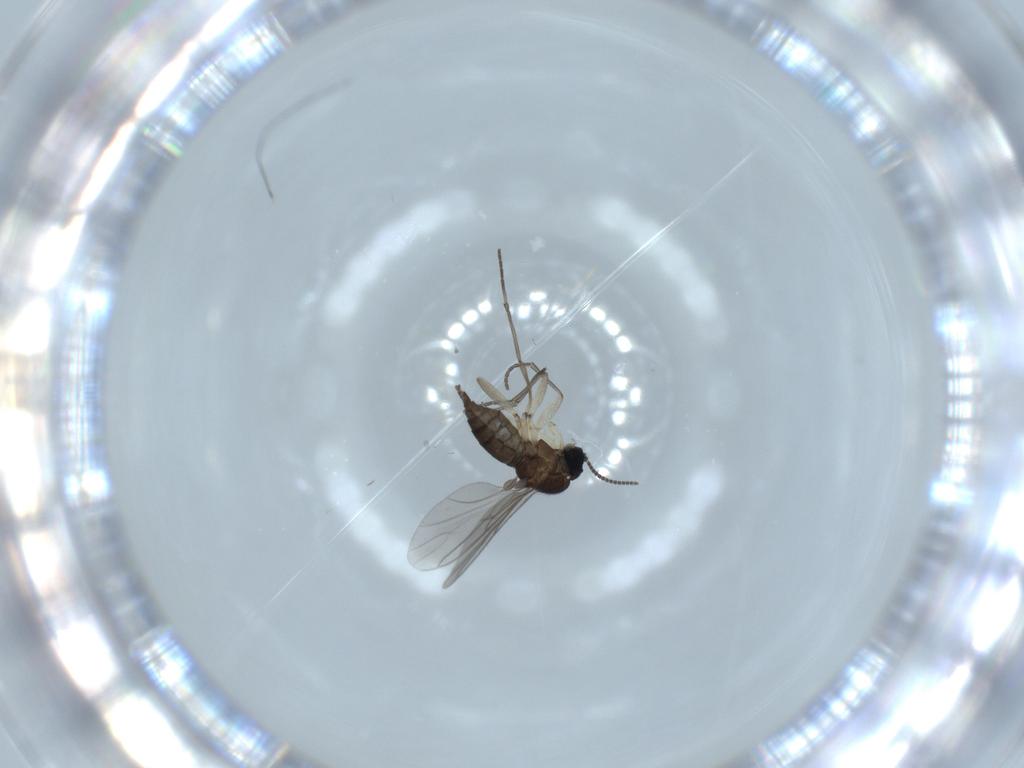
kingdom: Animalia
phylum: Arthropoda
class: Insecta
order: Diptera
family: Sciaridae
